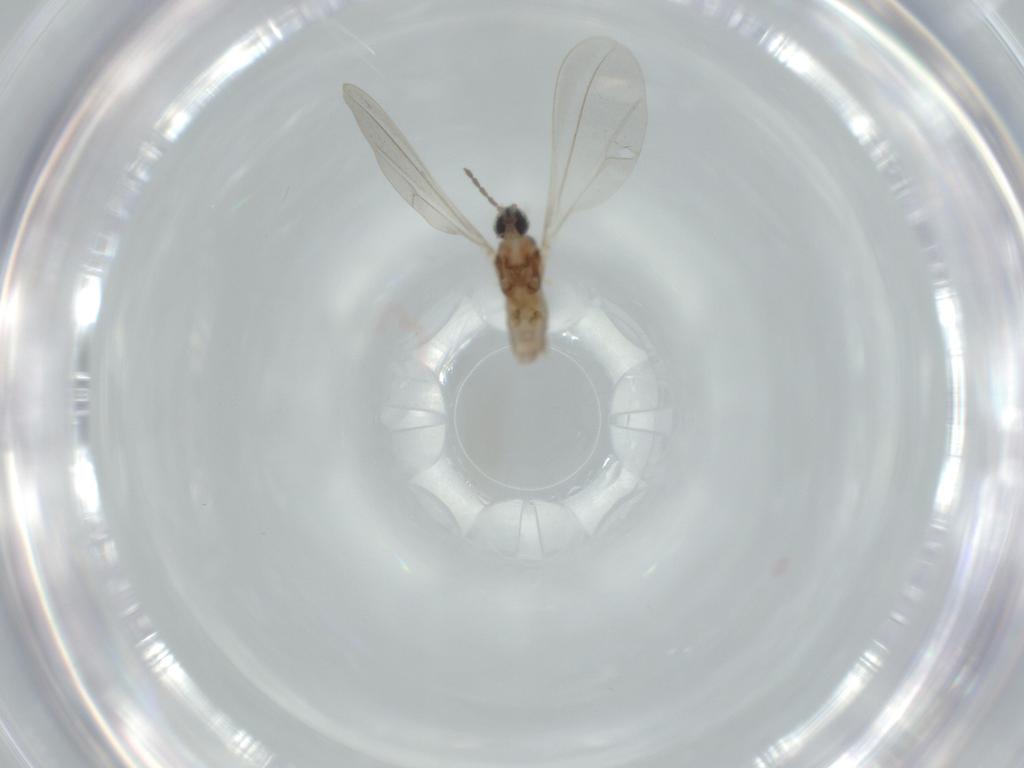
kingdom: Animalia
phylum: Arthropoda
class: Insecta
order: Diptera
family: Cecidomyiidae
